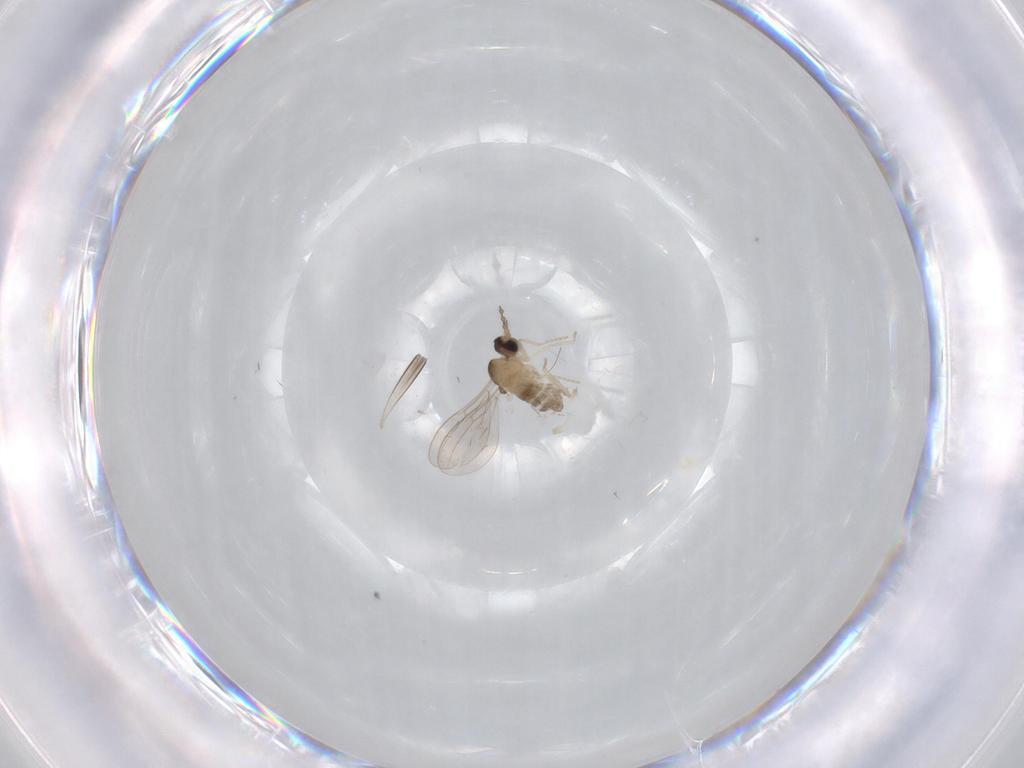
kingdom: Animalia
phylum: Arthropoda
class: Insecta
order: Diptera
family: Cecidomyiidae
